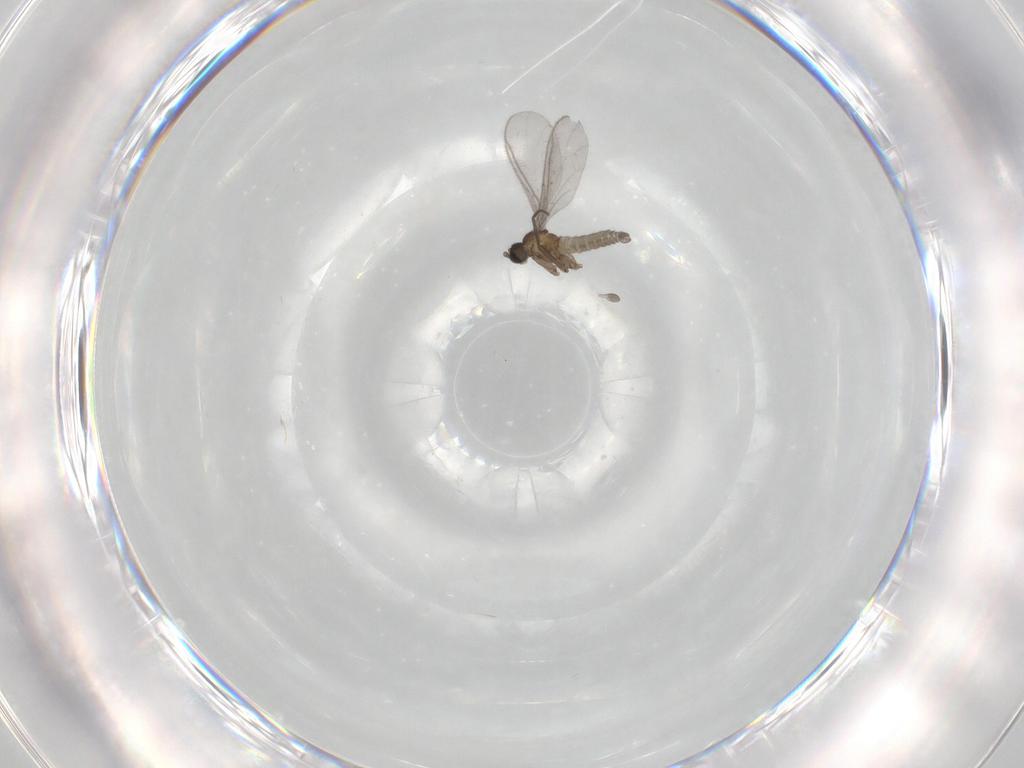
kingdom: Animalia
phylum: Arthropoda
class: Insecta
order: Diptera
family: Sciaridae
